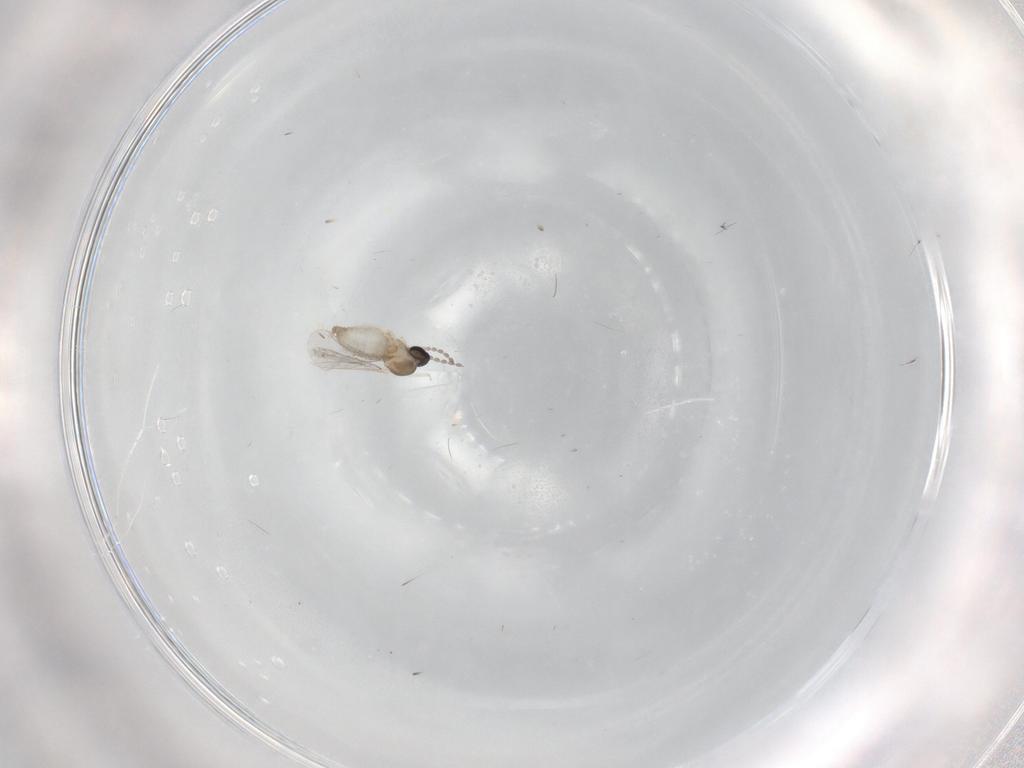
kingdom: Animalia
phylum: Arthropoda
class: Insecta
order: Diptera
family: Cecidomyiidae
